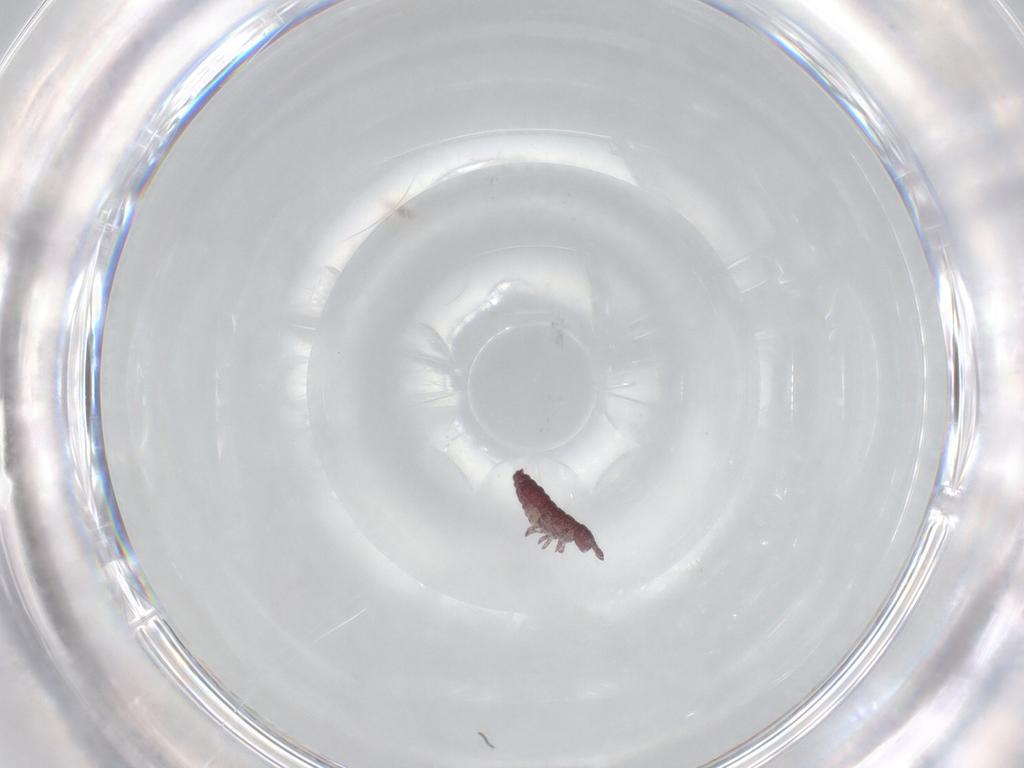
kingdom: Animalia
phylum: Arthropoda
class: Collembola
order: Poduromorpha
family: Hypogastruridae
